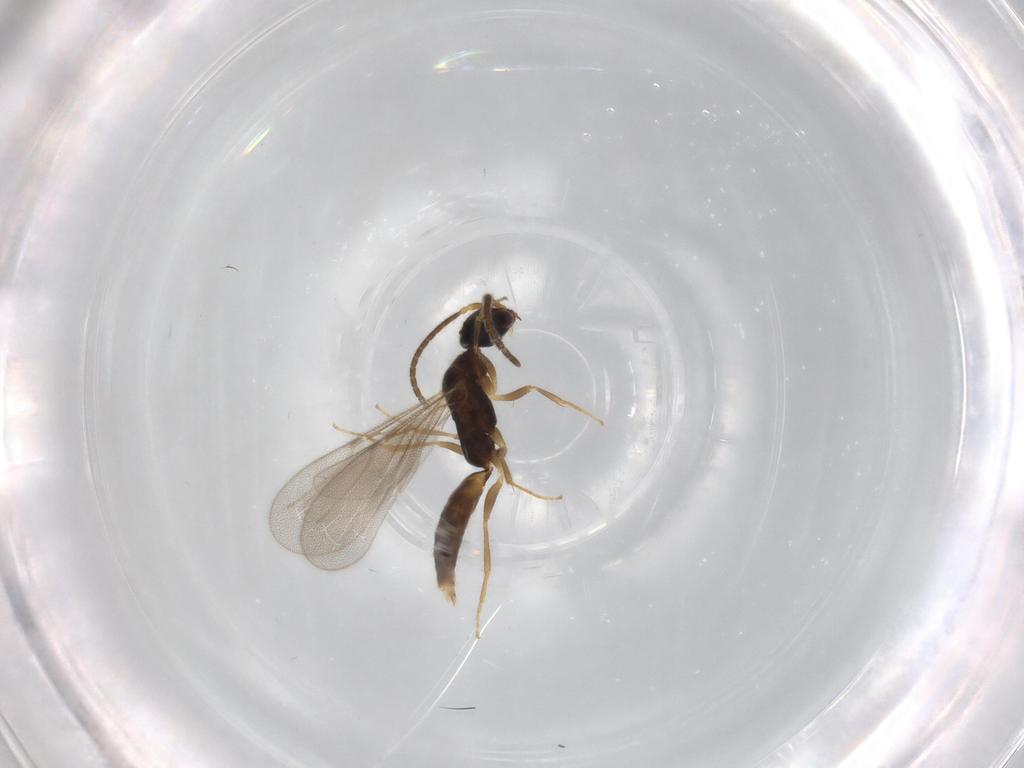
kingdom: Animalia
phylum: Arthropoda
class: Insecta
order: Hymenoptera
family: Bethylidae
